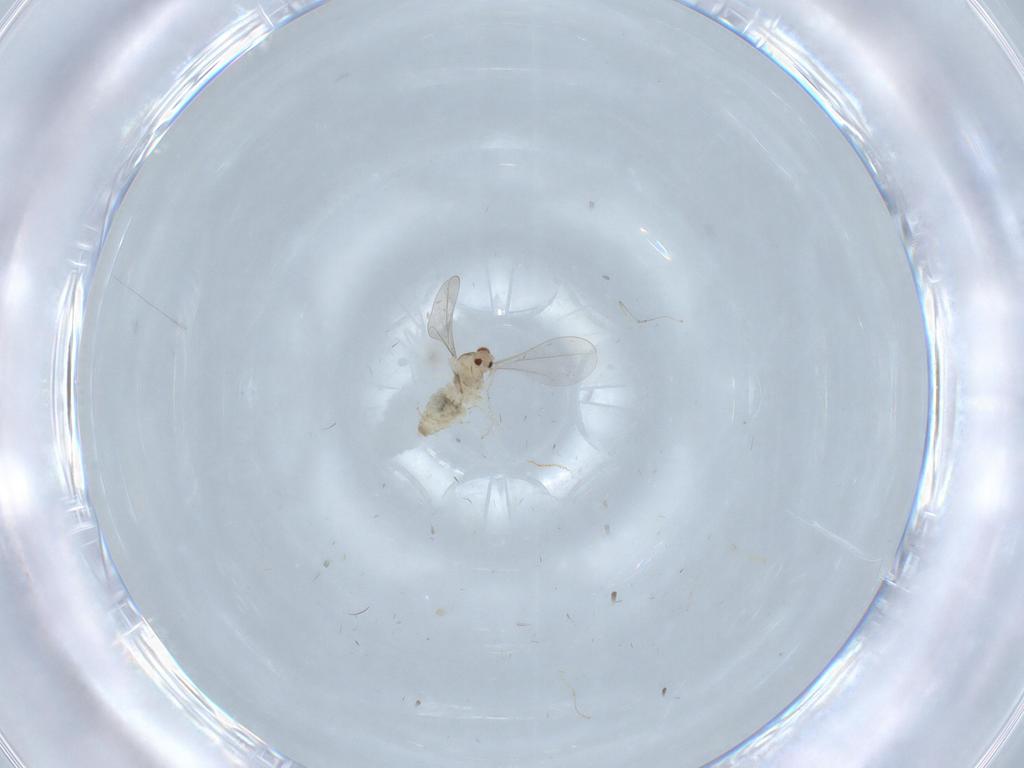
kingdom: Animalia
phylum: Arthropoda
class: Insecta
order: Diptera
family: Cecidomyiidae
